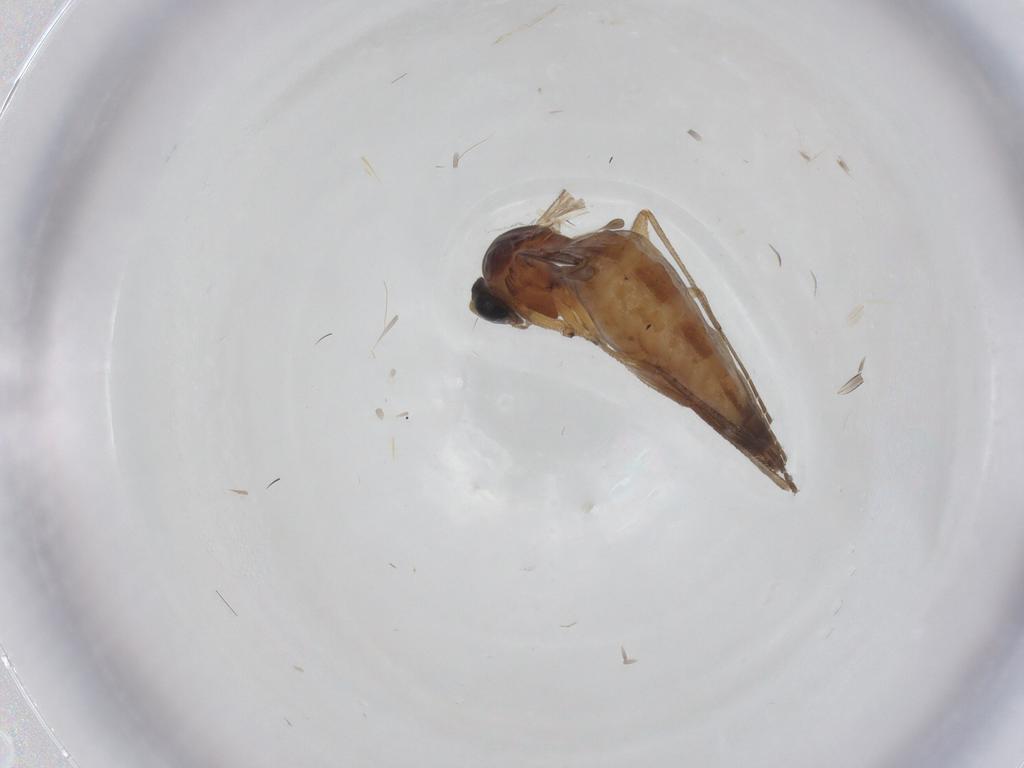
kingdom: Animalia
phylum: Arthropoda
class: Insecta
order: Diptera
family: Sciaridae
